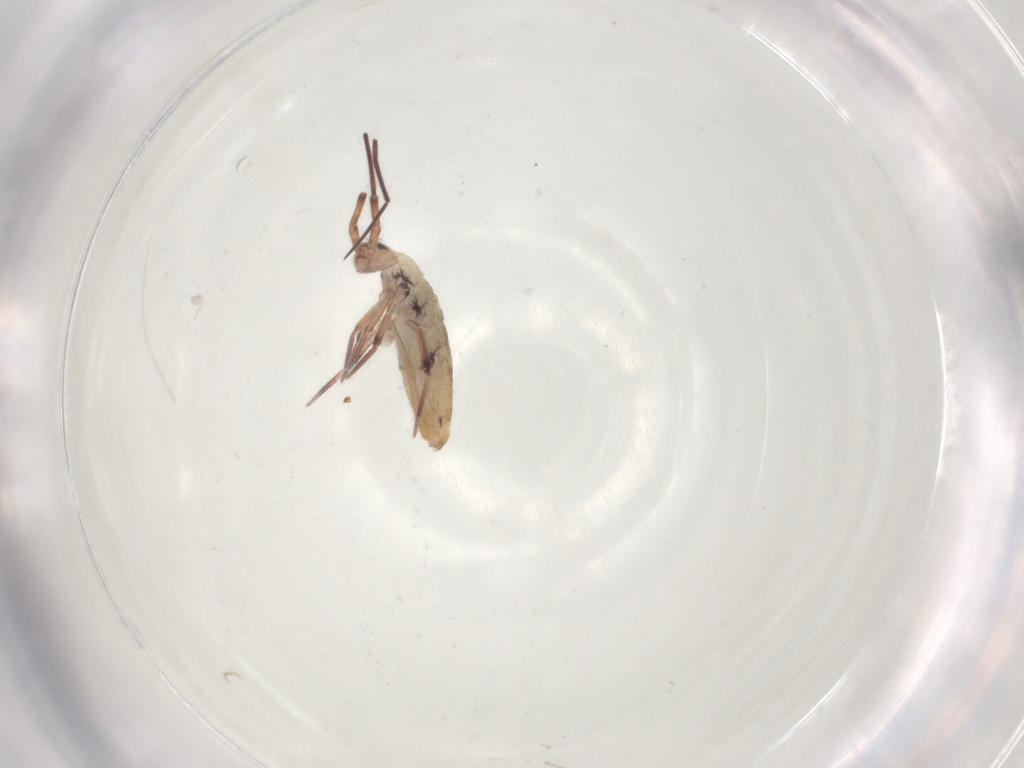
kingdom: Animalia
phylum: Arthropoda
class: Collembola
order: Entomobryomorpha
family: Entomobryidae
